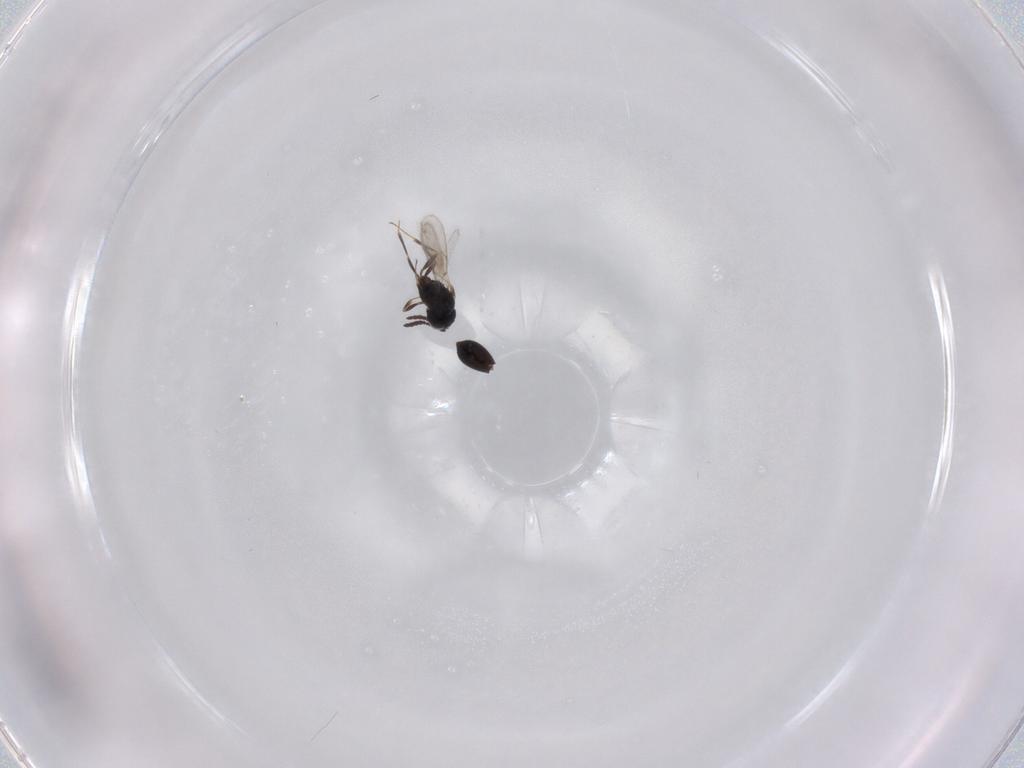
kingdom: Animalia
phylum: Arthropoda
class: Insecta
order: Hymenoptera
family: Scelionidae
